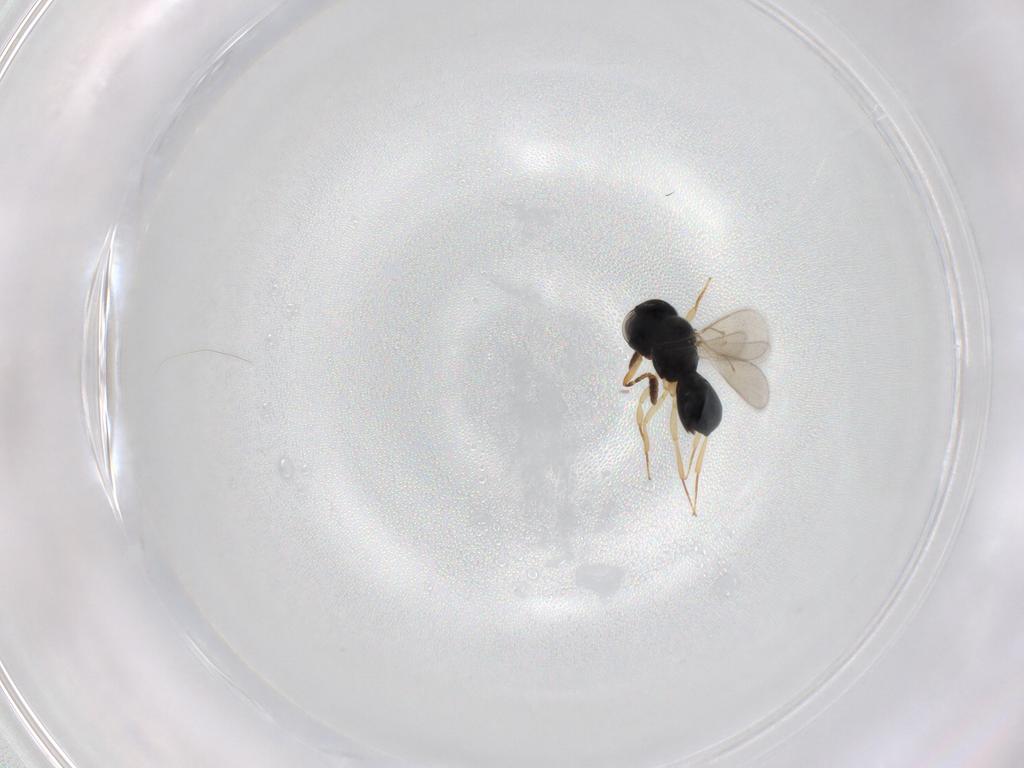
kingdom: Animalia
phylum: Arthropoda
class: Insecta
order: Hymenoptera
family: Scelionidae
